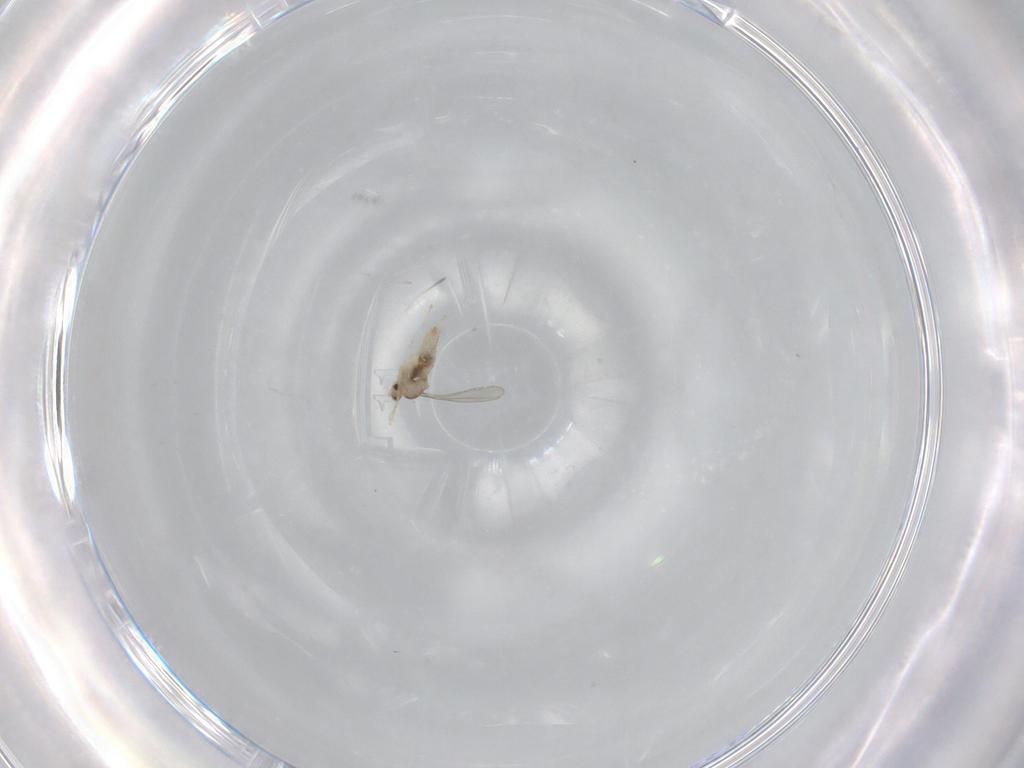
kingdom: Animalia
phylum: Arthropoda
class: Insecta
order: Diptera
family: Cecidomyiidae
